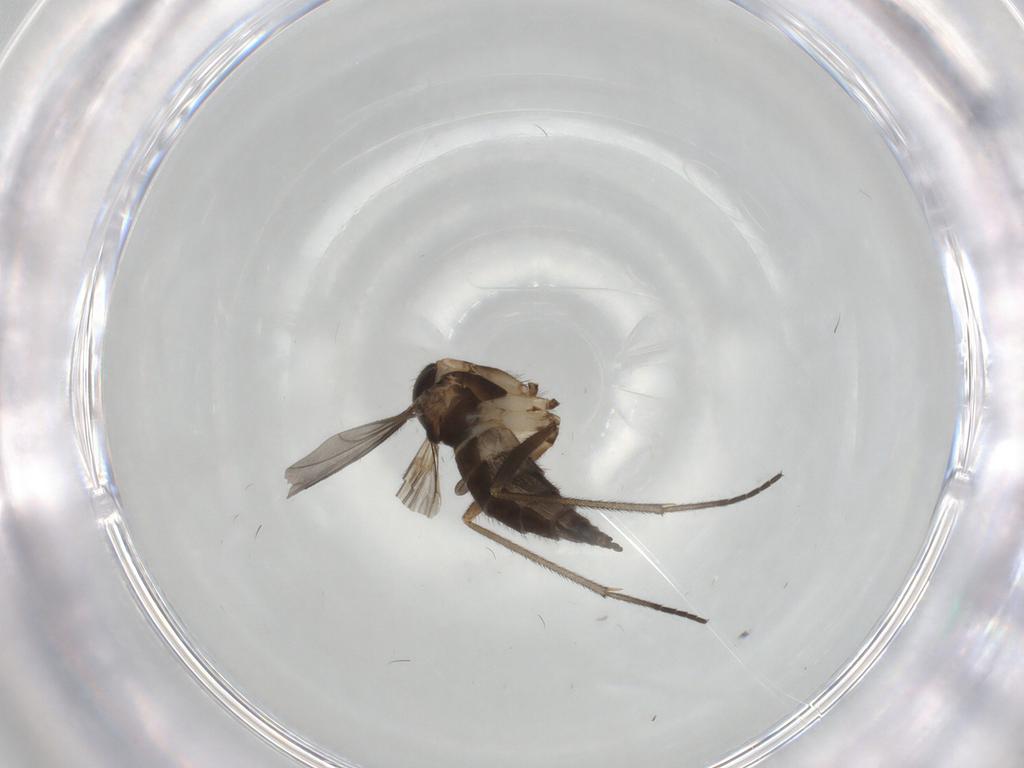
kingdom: Animalia
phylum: Arthropoda
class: Insecta
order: Diptera
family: Sciaridae
